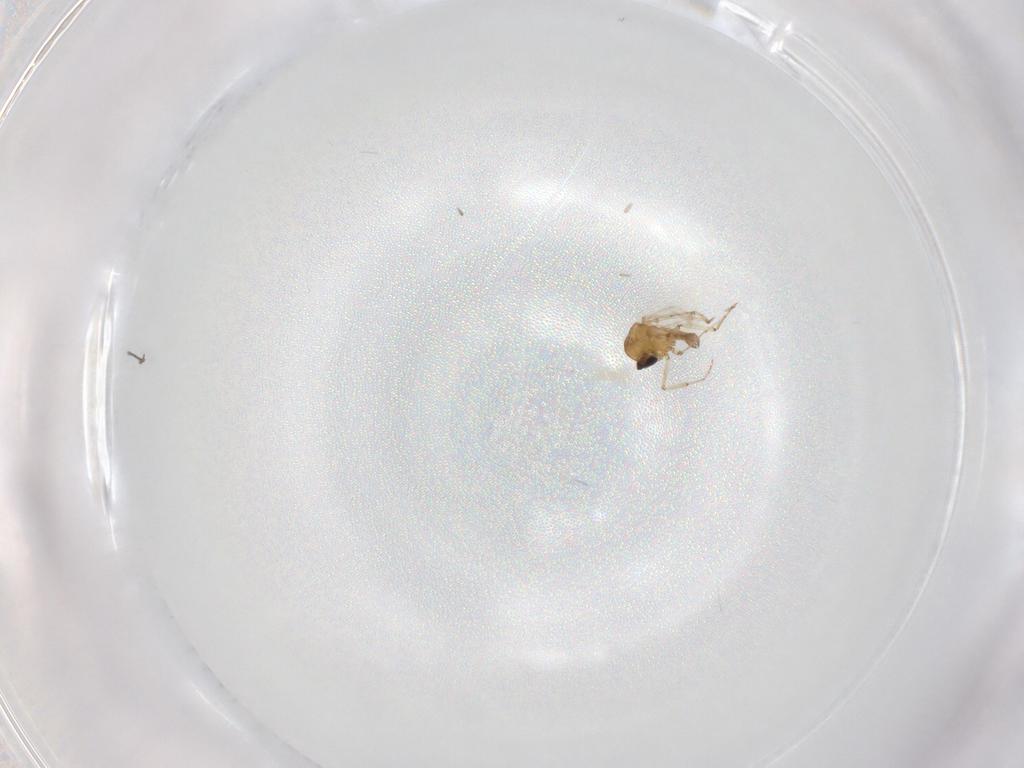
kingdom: Animalia
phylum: Arthropoda
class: Insecta
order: Diptera
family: Ceratopogonidae
